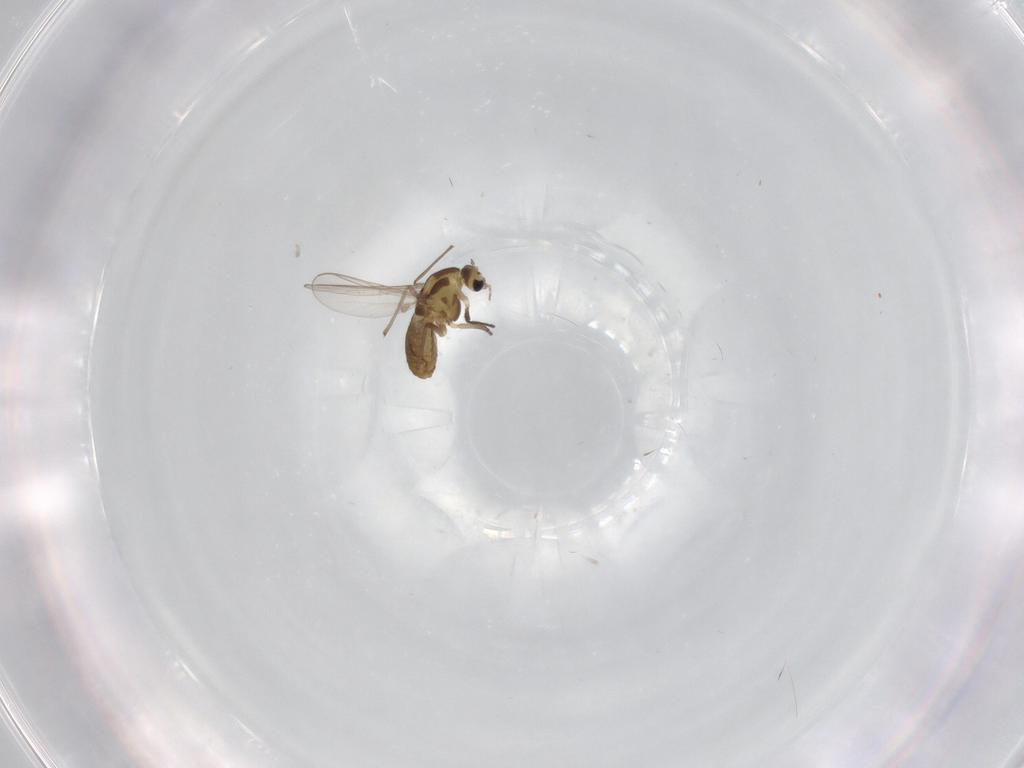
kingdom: Animalia
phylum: Arthropoda
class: Insecta
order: Diptera
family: Chironomidae
